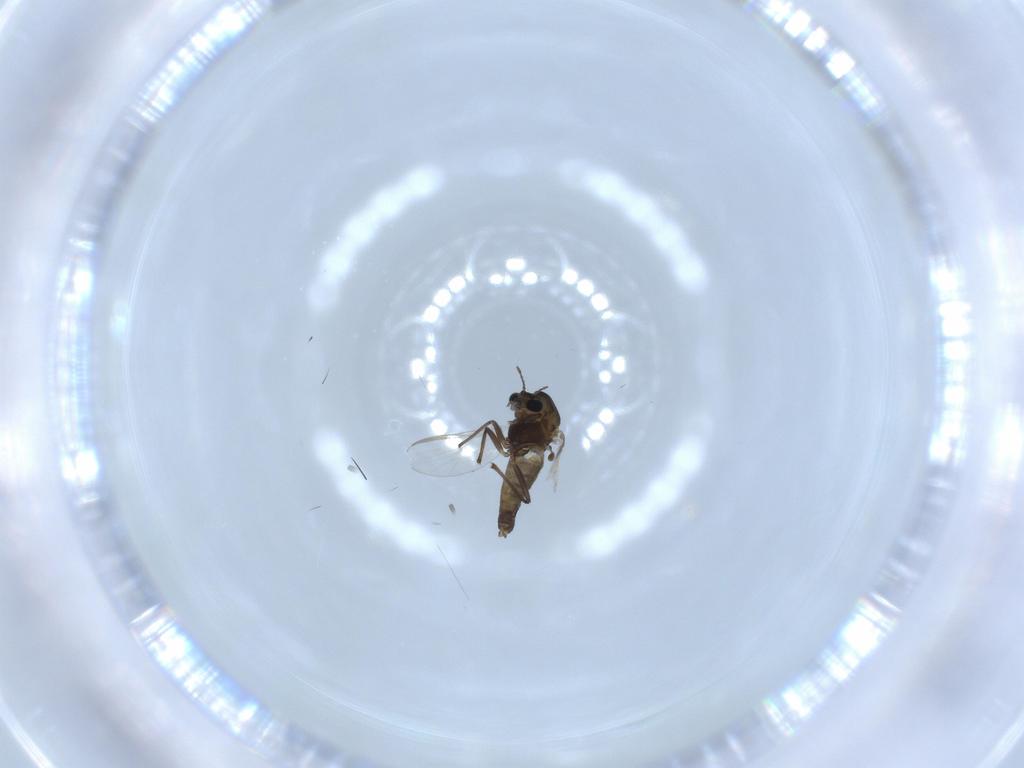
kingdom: Animalia
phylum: Arthropoda
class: Insecta
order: Diptera
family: Chironomidae
